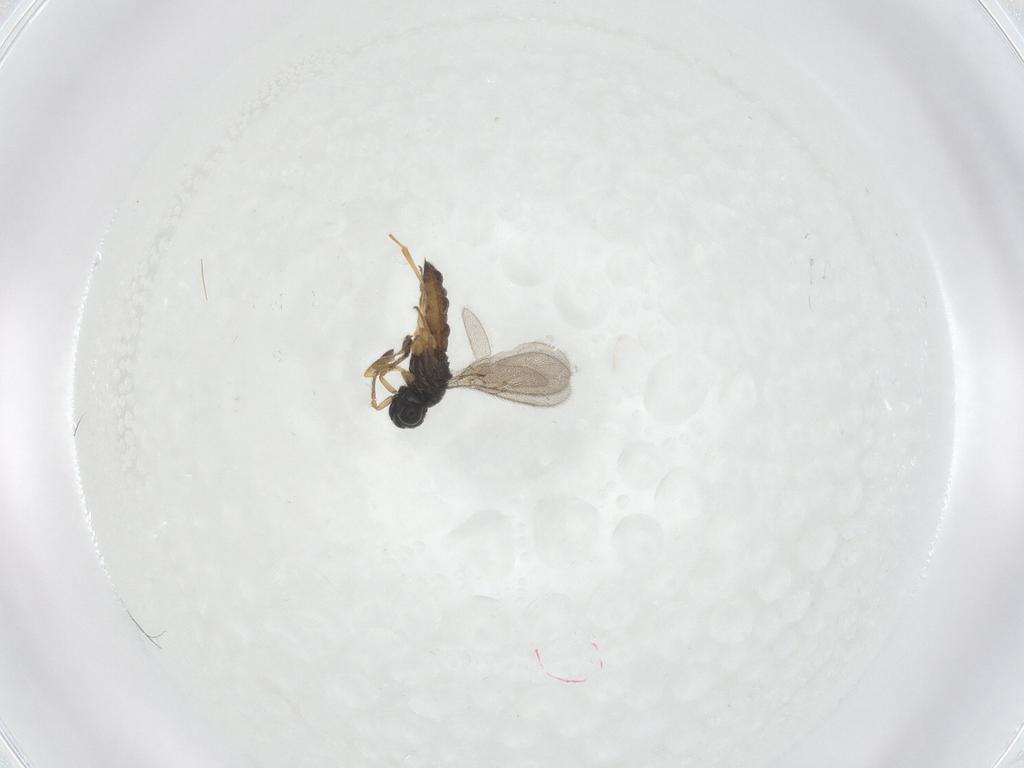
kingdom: Animalia
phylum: Arthropoda
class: Insecta
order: Hymenoptera
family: Scelionidae
